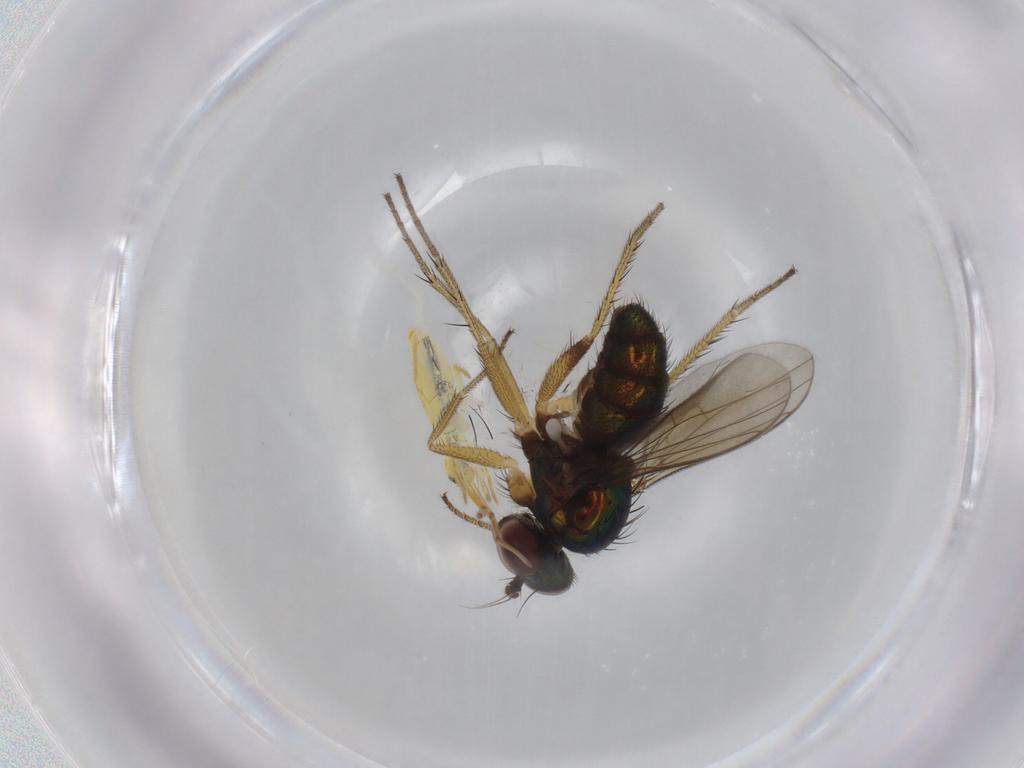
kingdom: Animalia
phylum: Arthropoda
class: Insecta
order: Diptera
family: Dolichopodidae
